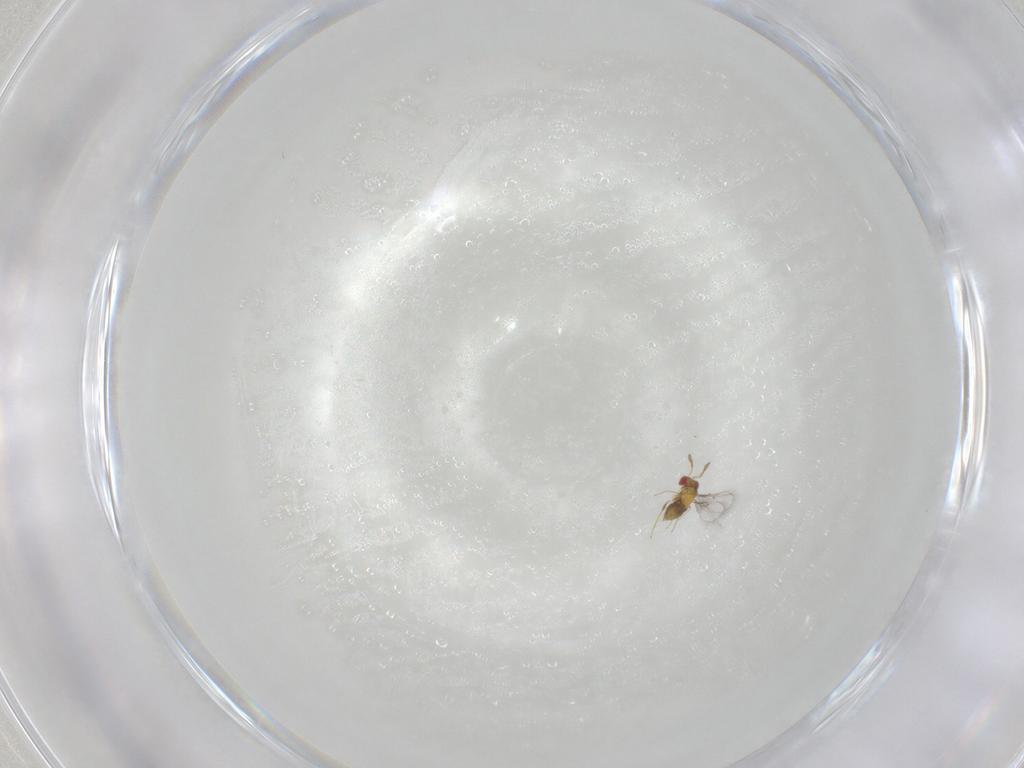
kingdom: Animalia
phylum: Arthropoda
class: Insecta
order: Hymenoptera
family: Trichogrammatidae
